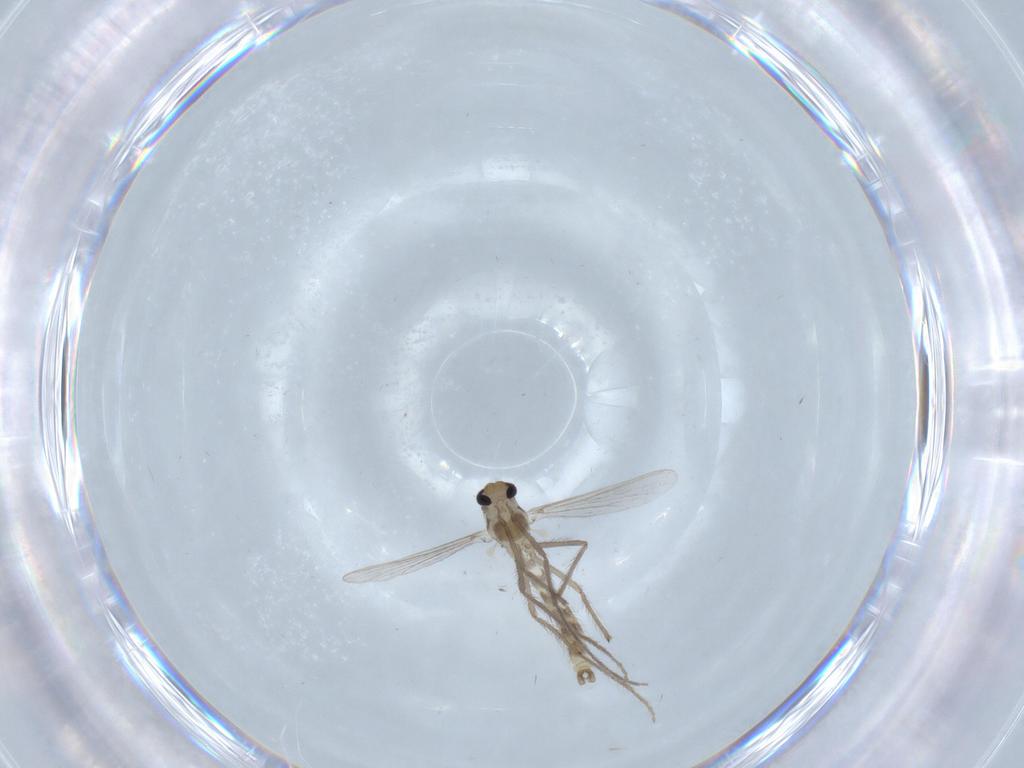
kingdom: Animalia
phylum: Arthropoda
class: Insecta
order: Diptera
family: Chironomidae
